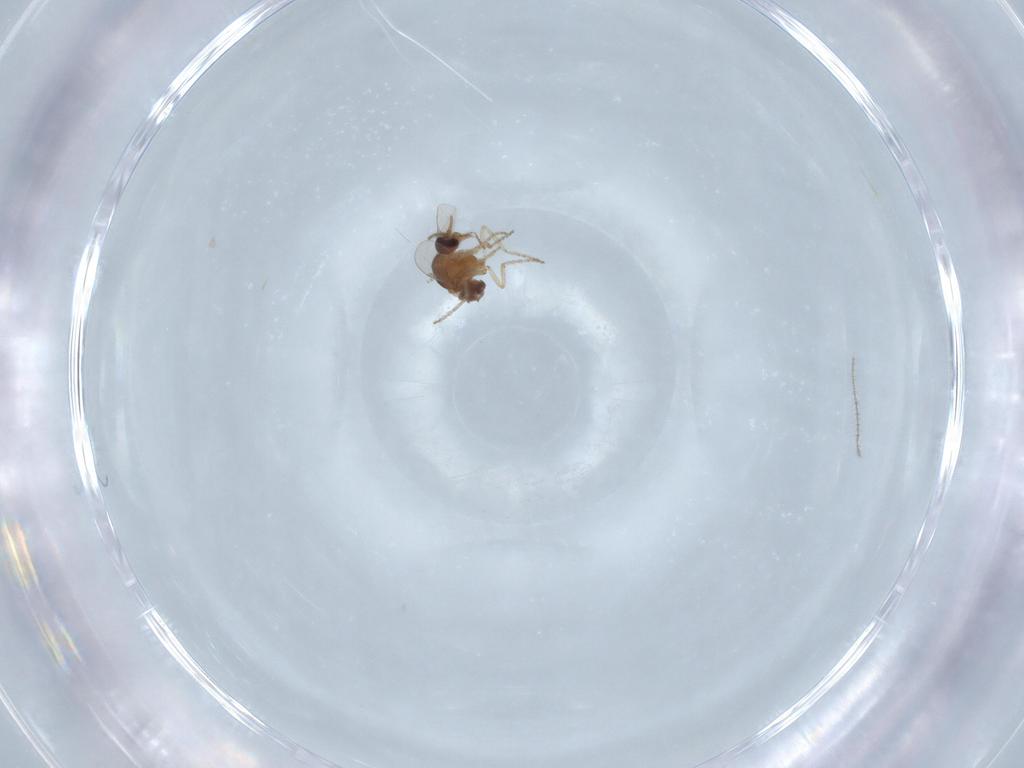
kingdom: Animalia
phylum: Arthropoda
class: Insecta
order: Diptera
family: Ceratopogonidae
